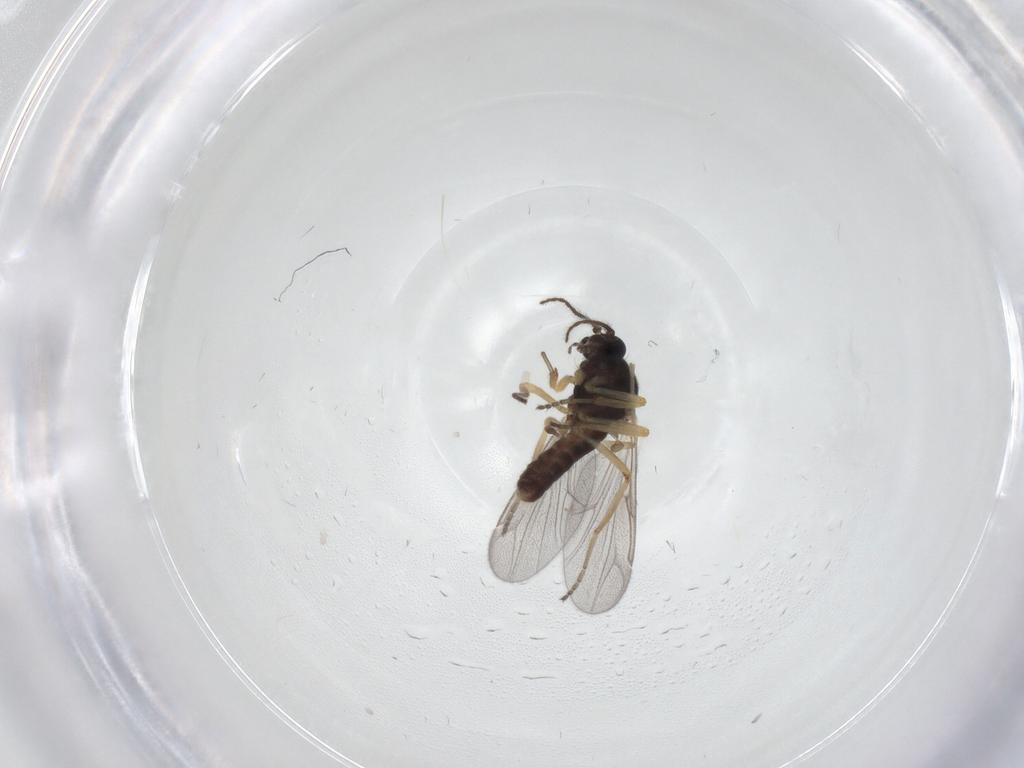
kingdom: Animalia
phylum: Arthropoda
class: Insecta
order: Diptera
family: Ceratopogonidae
